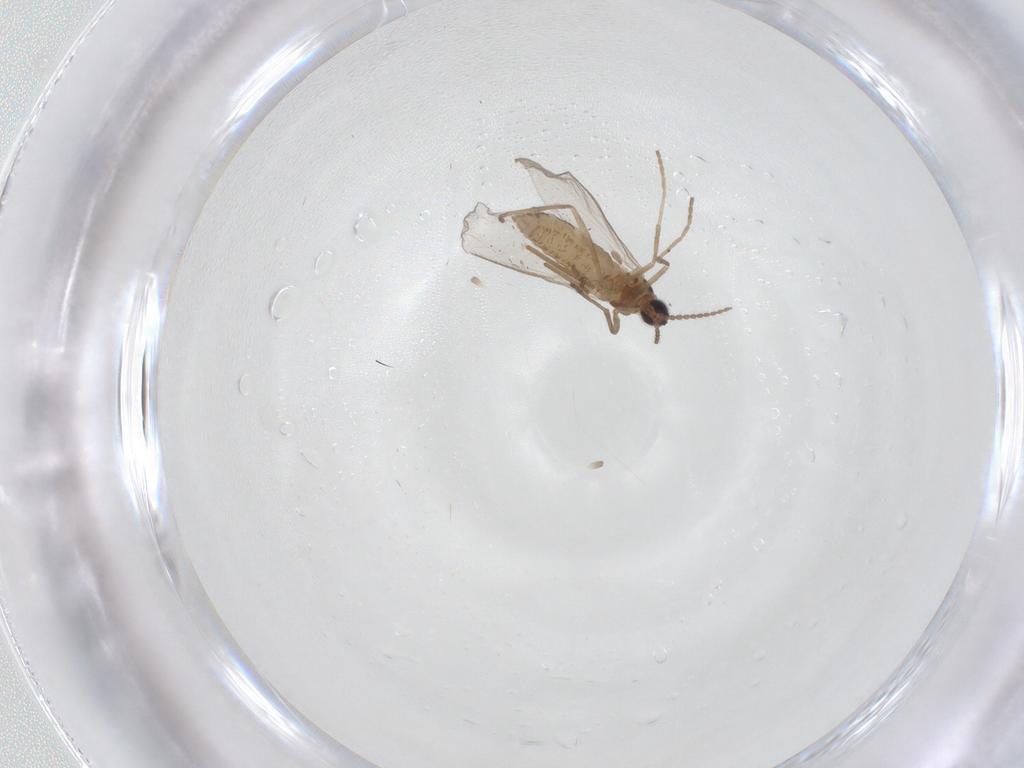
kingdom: Animalia
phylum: Arthropoda
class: Insecta
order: Diptera
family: Cecidomyiidae
